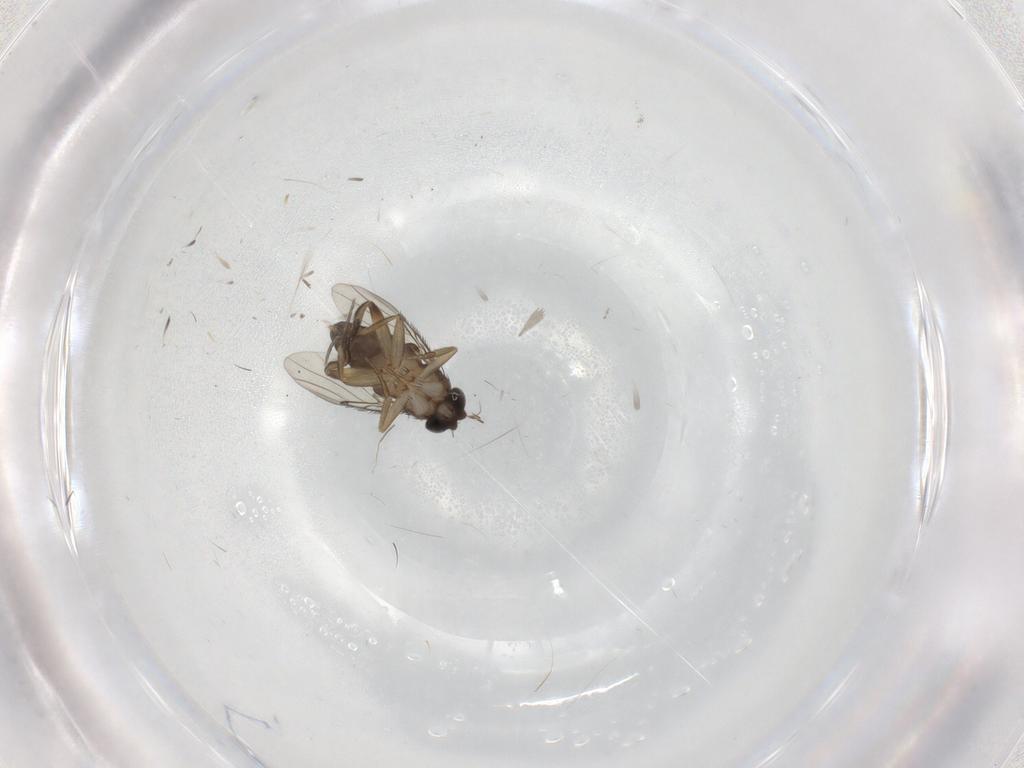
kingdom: Animalia
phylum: Arthropoda
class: Insecta
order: Diptera
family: Phoridae
